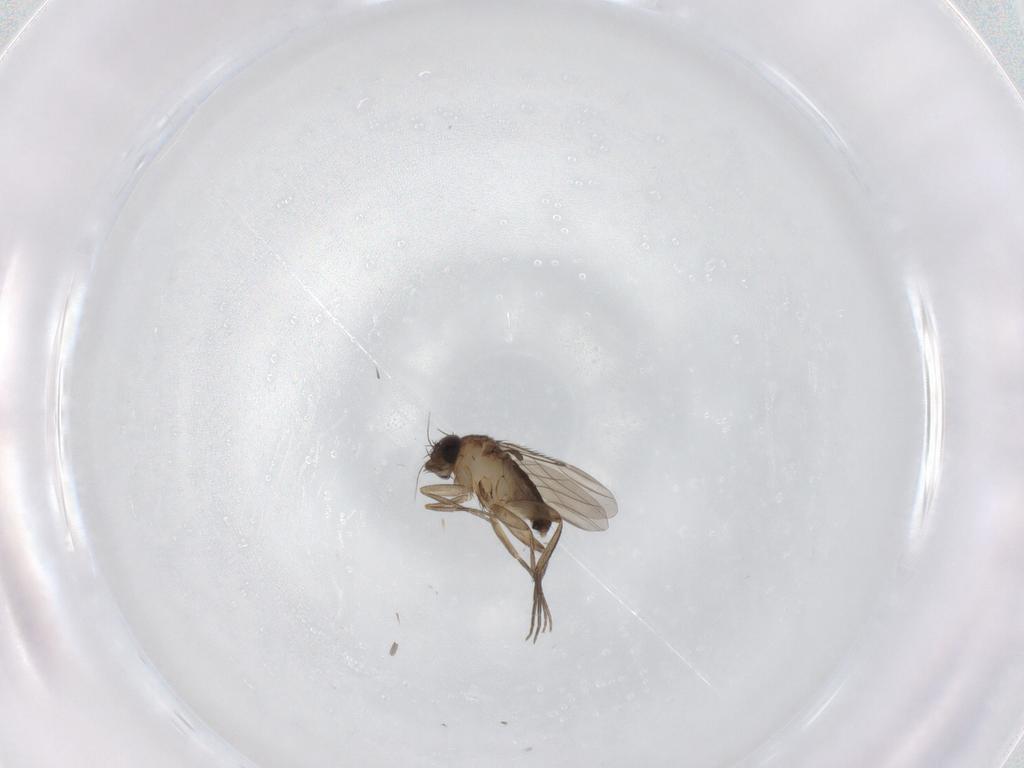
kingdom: Animalia
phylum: Arthropoda
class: Insecta
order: Diptera
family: Phoridae
